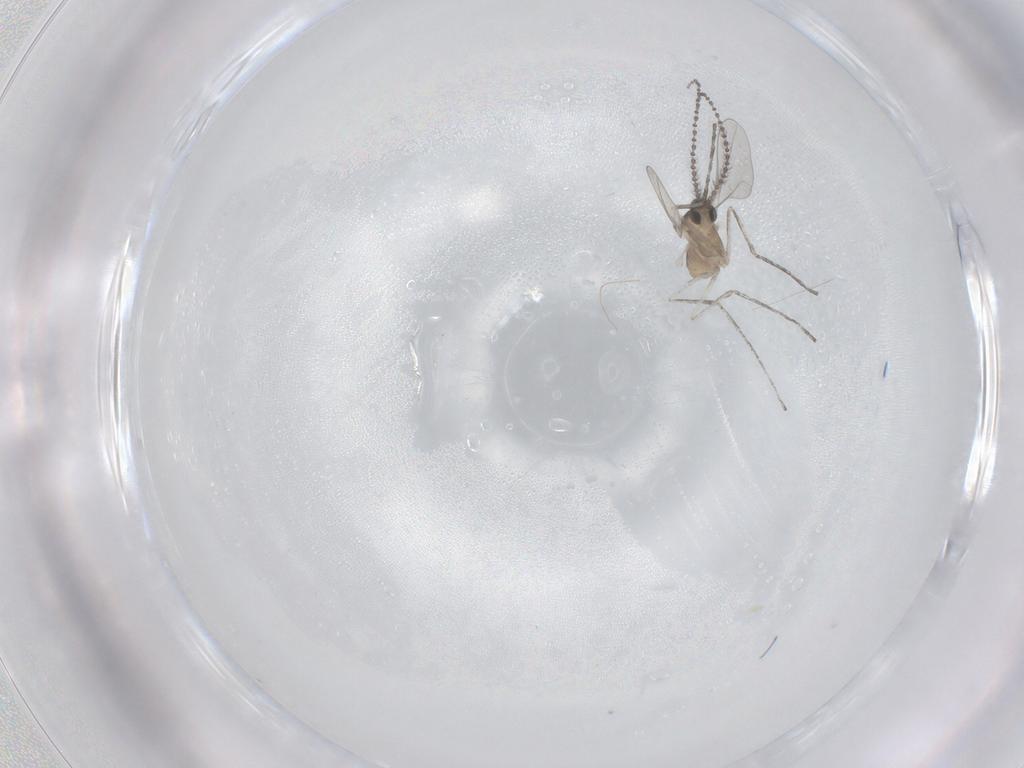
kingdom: Animalia
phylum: Arthropoda
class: Insecta
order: Diptera
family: Cecidomyiidae
